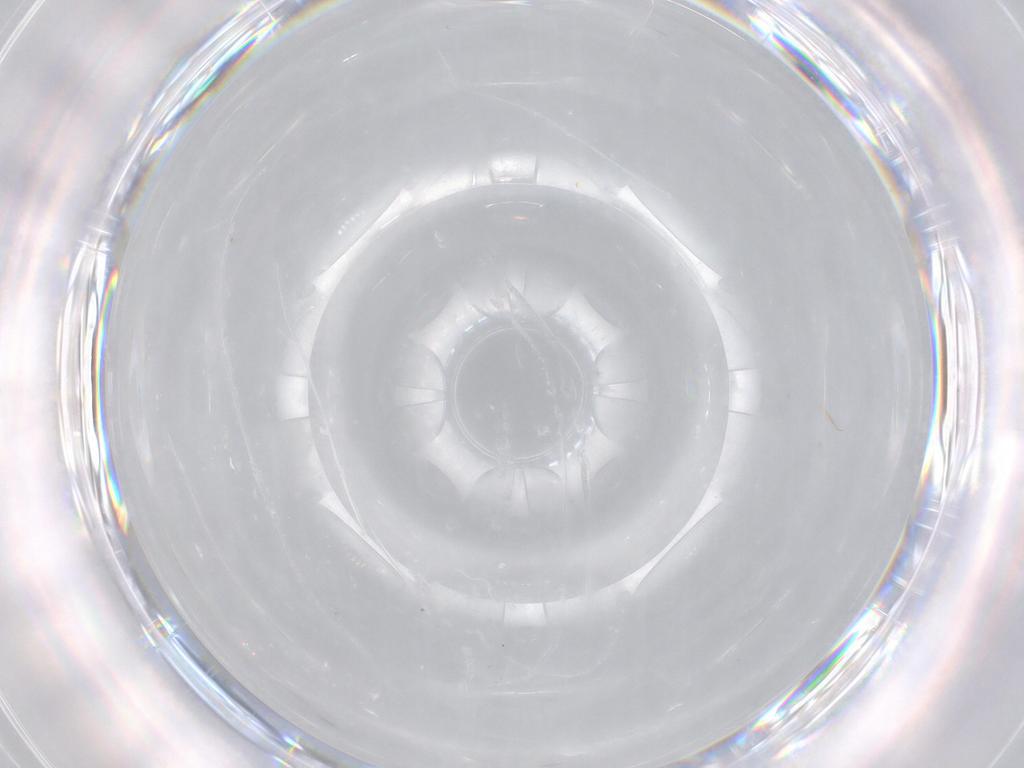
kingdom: Animalia
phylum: Arthropoda
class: Insecta
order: Diptera
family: Cecidomyiidae
